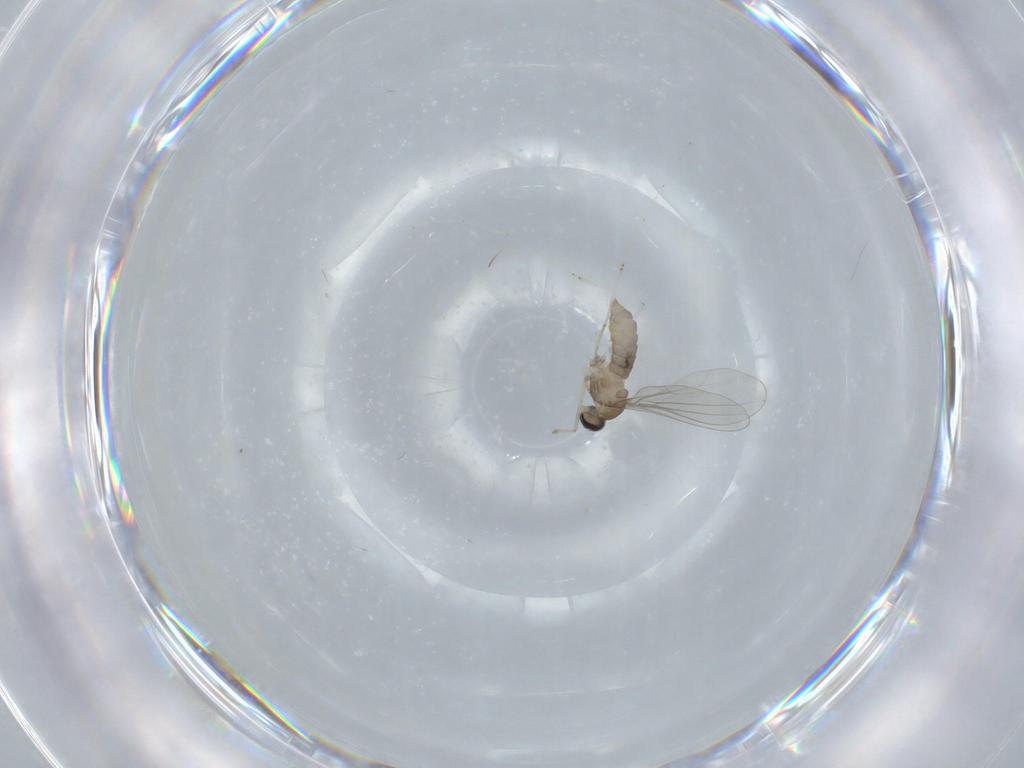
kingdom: Animalia
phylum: Arthropoda
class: Insecta
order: Diptera
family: Cecidomyiidae
